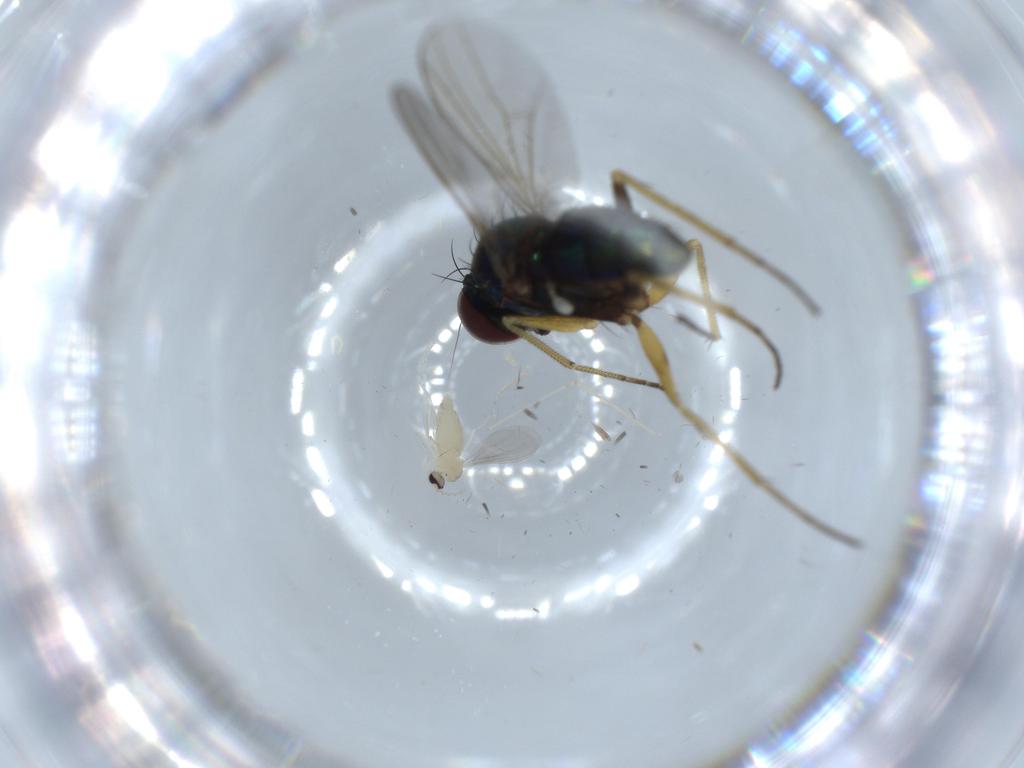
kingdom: Animalia
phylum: Arthropoda
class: Insecta
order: Diptera
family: Dolichopodidae
